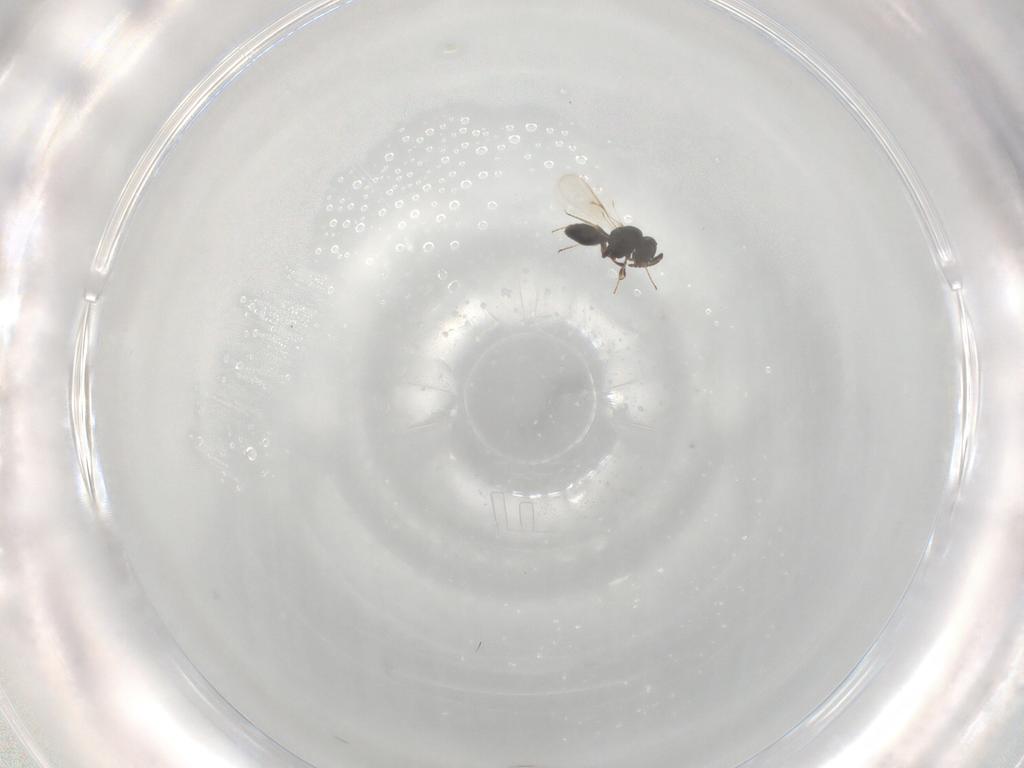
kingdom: Animalia
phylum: Arthropoda
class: Insecta
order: Hymenoptera
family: Scelionidae
